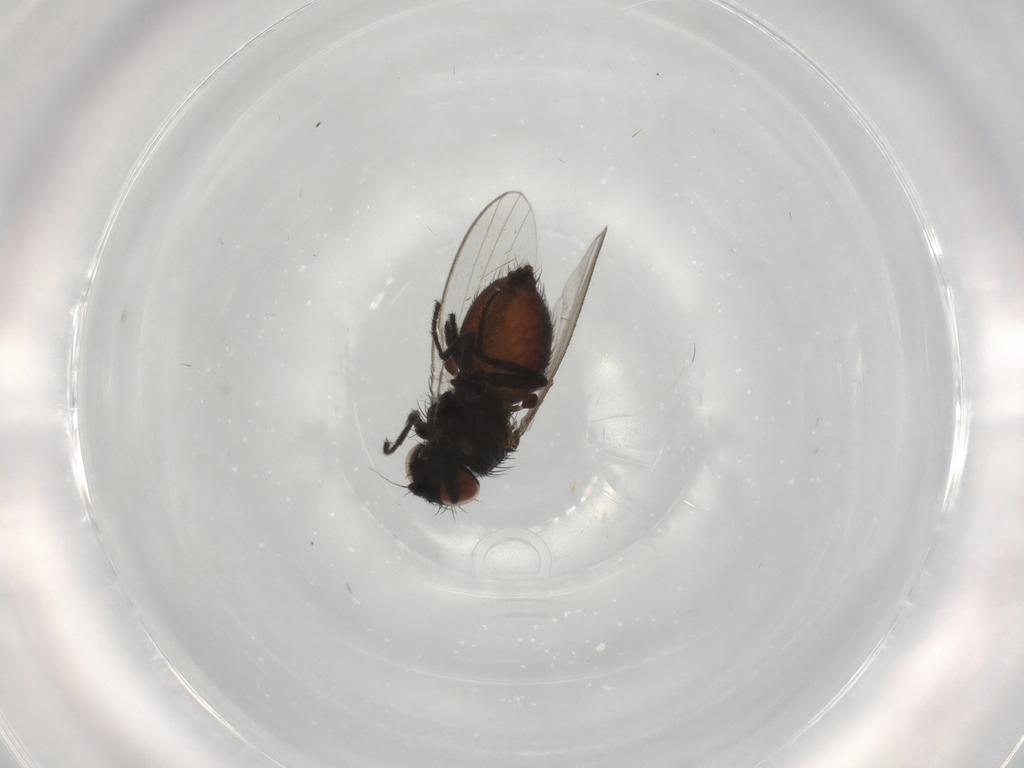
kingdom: Animalia
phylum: Arthropoda
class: Insecta
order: Diptera
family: Milichiidae
